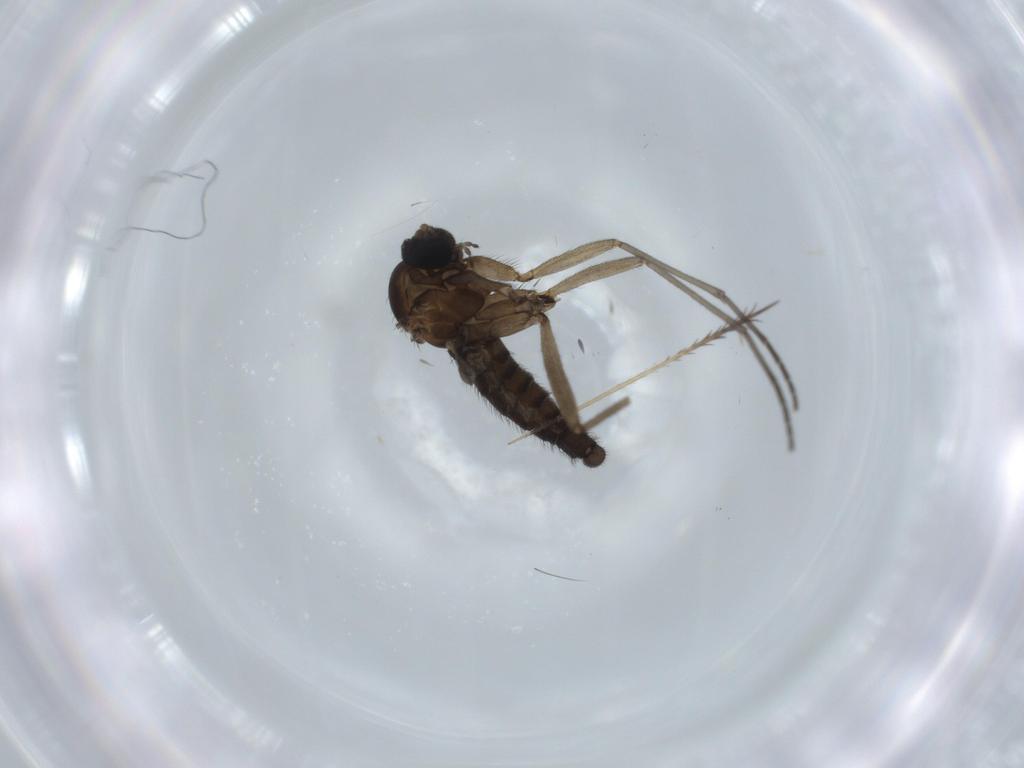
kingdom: Animalia
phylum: Arthropoda
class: Insecta
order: Diptera
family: Sciaridae
